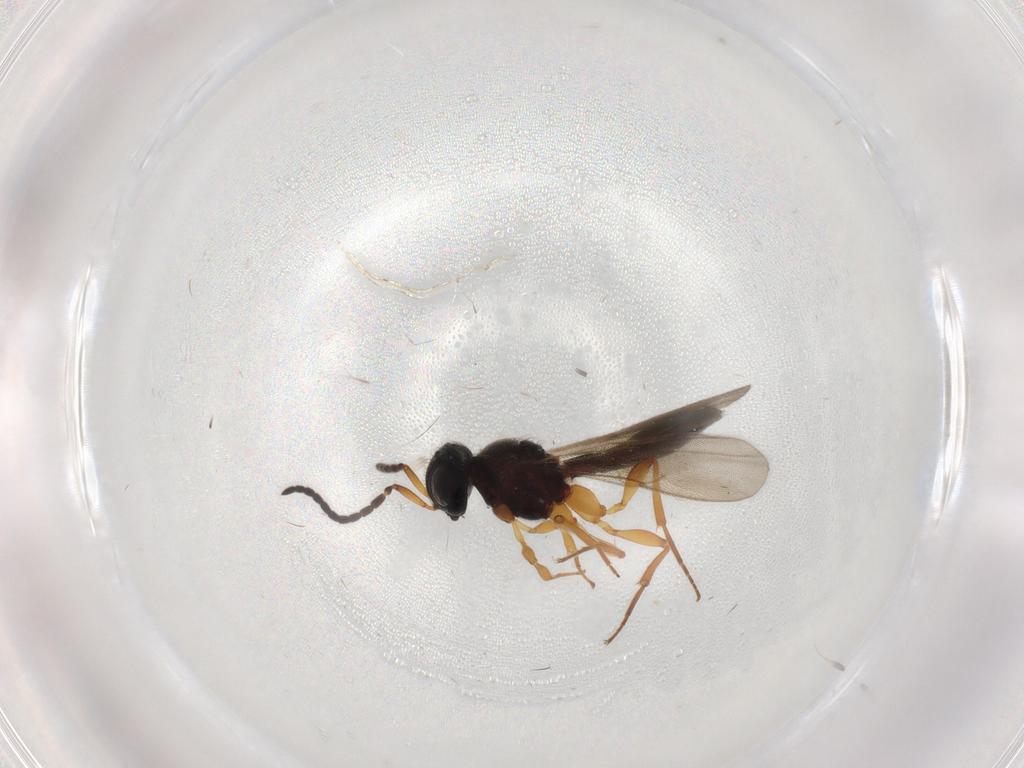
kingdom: Animalia
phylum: Arthropoda
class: Insecta
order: Hymenoptera
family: Scelionidae
